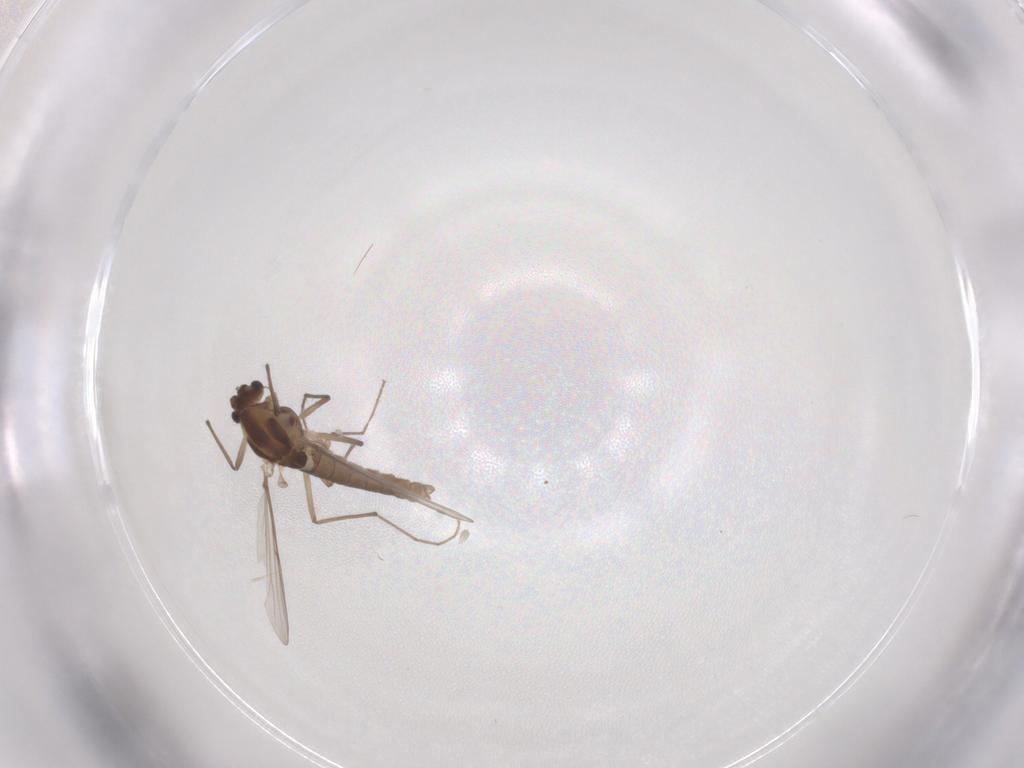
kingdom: Animalia
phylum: Arthropoda
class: Insecta
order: Diptera
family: Chironomidae
